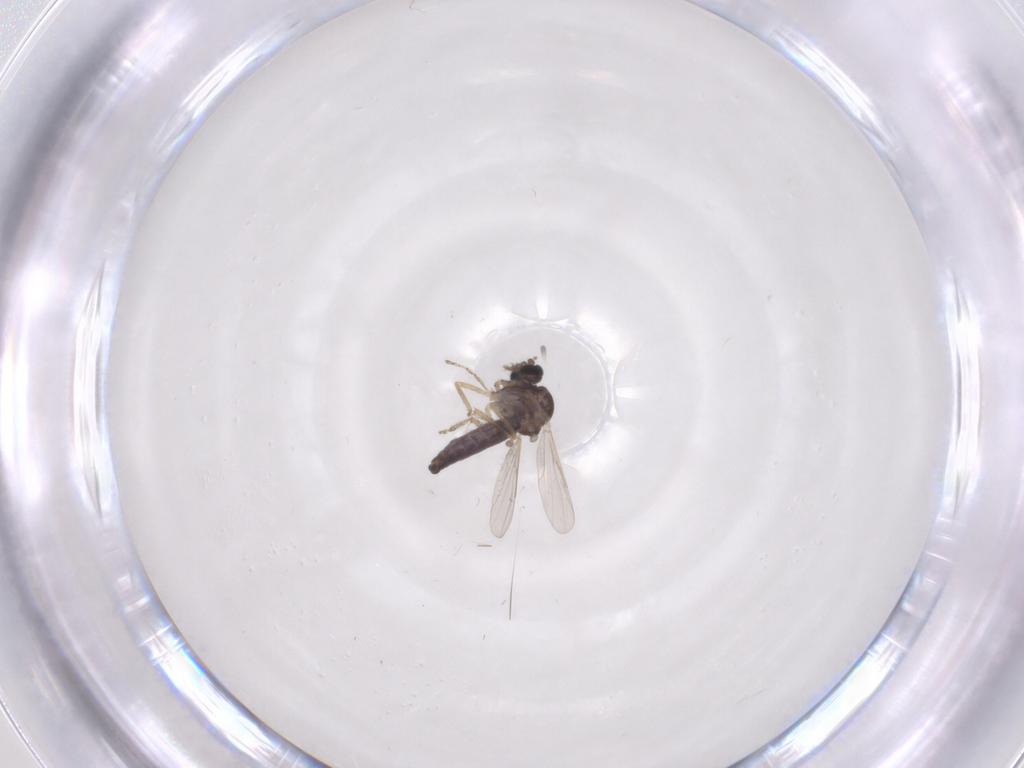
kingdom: Animalia
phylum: Arthropoda
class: Insecta
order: Diptera
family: Ceratopogonidae
